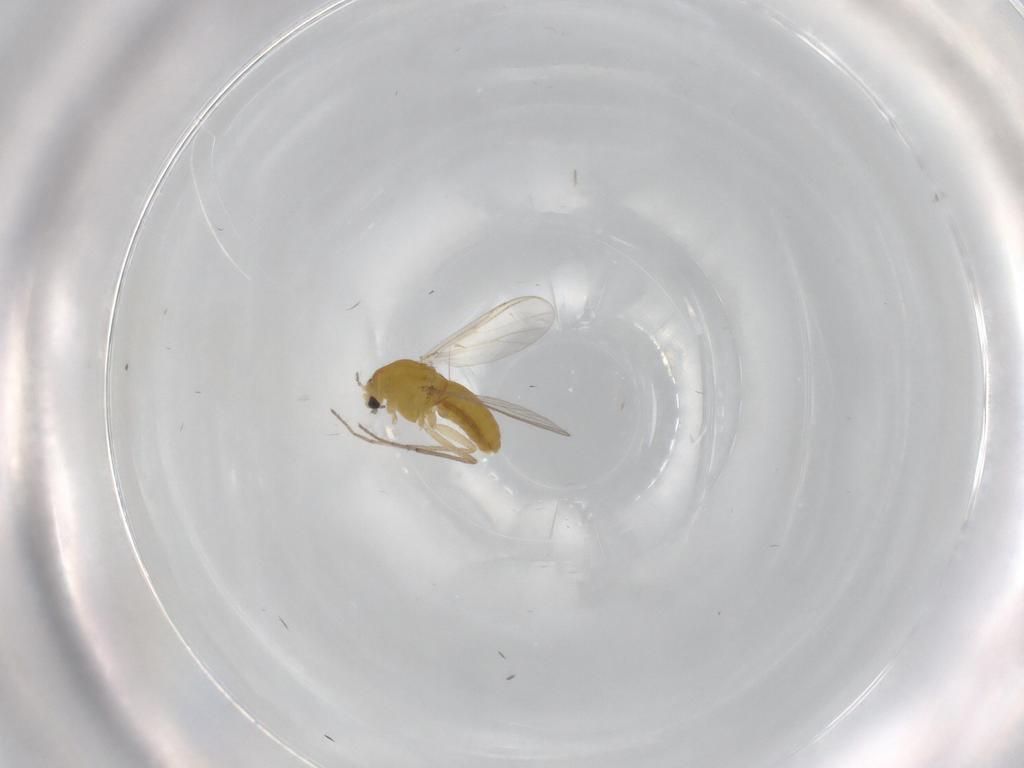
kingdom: Animalia
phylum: Arthropoda
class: Insecta
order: Diptera
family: Chironomidae
